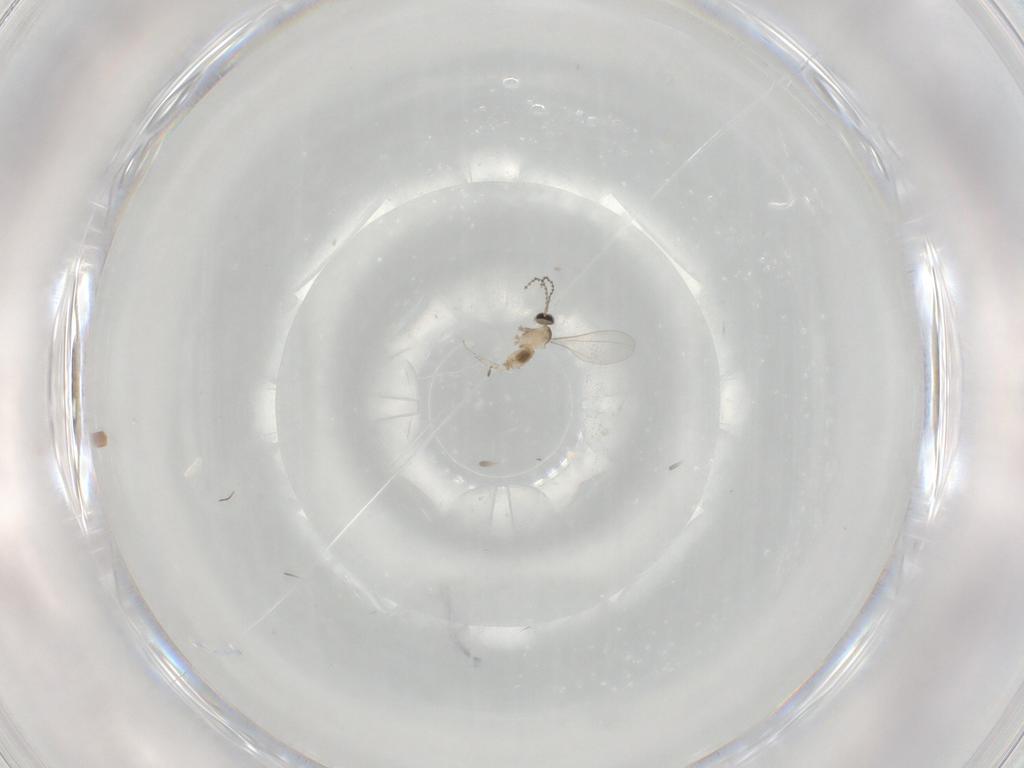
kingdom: Animalia
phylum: Arthropoda
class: Insecta
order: Diptera
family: Cecidomyiidae
